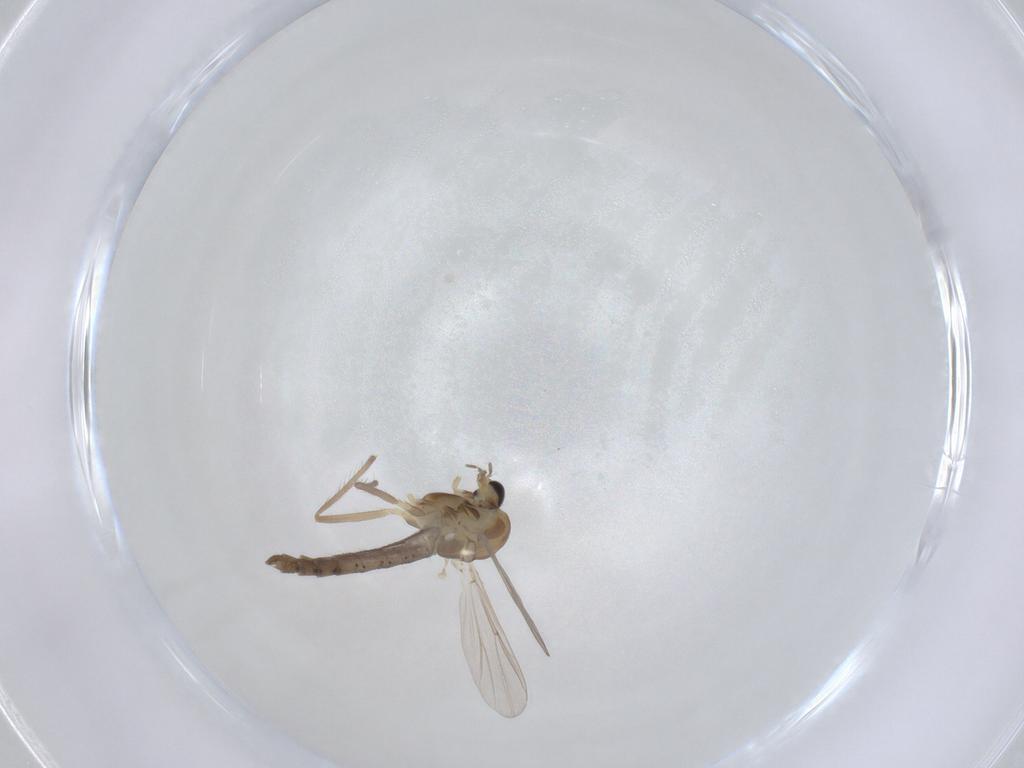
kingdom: Animalia
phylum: Arthropoda
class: Insecta
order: Diptera
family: Chironomidae
